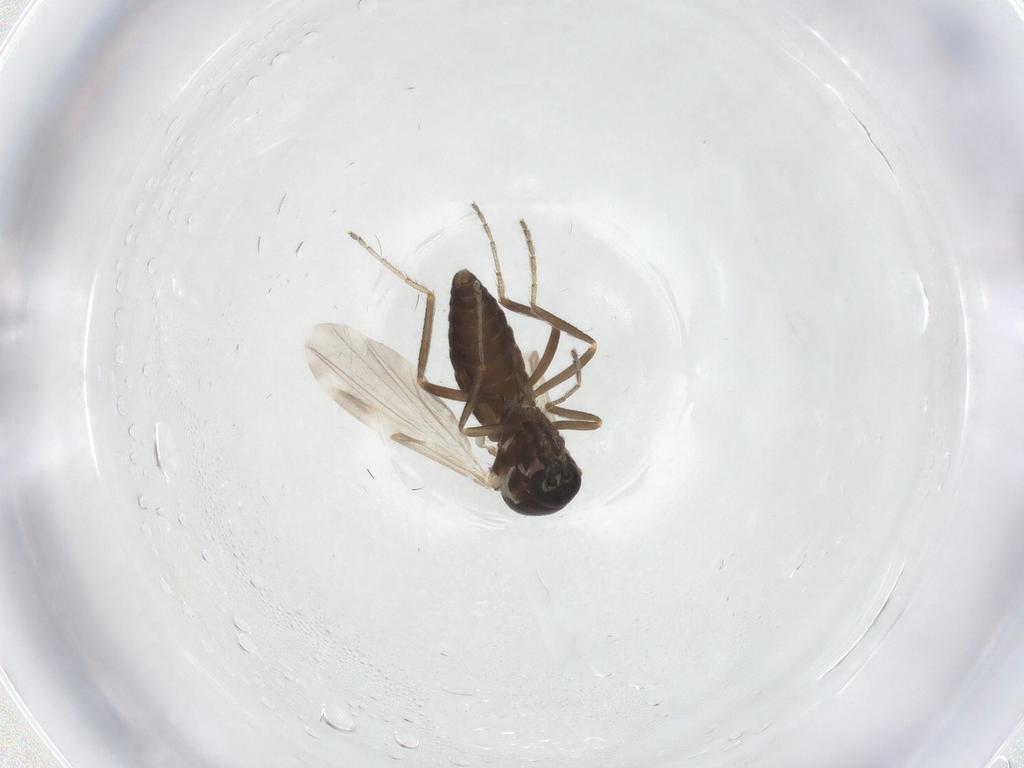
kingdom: Animalia
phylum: Arthropoda
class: Insecta
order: Diptera
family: Ceratopogonidae
